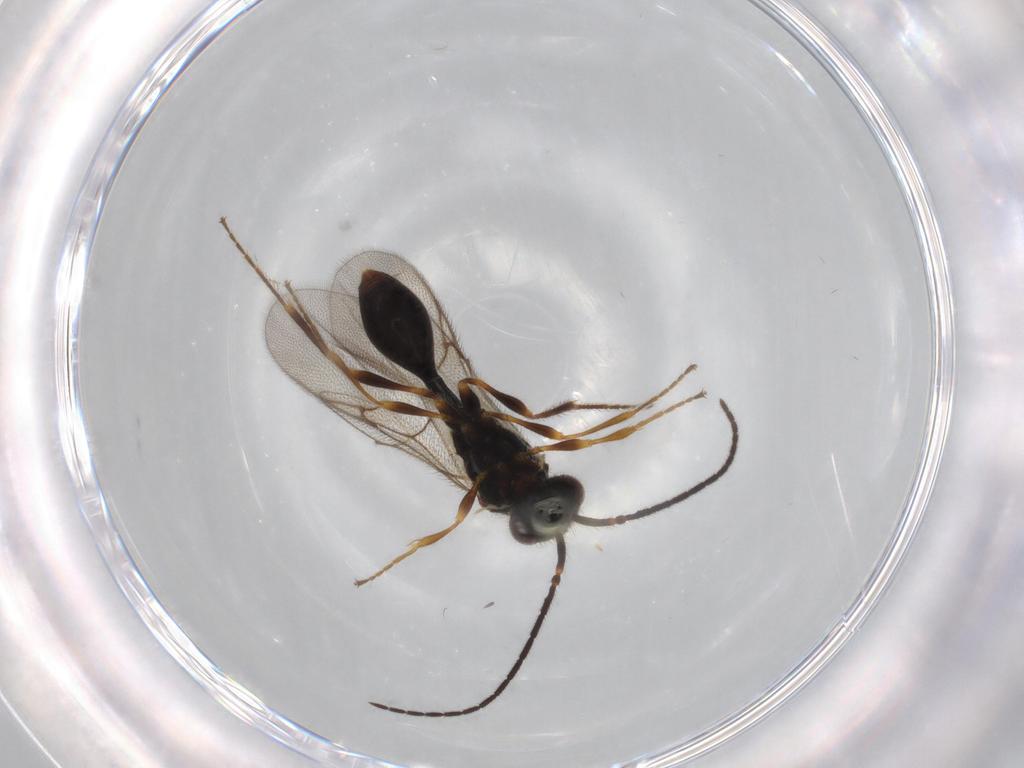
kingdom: Animalia
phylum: Arthropoda
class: Insecta
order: Hymenoptera
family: Diapriidae
